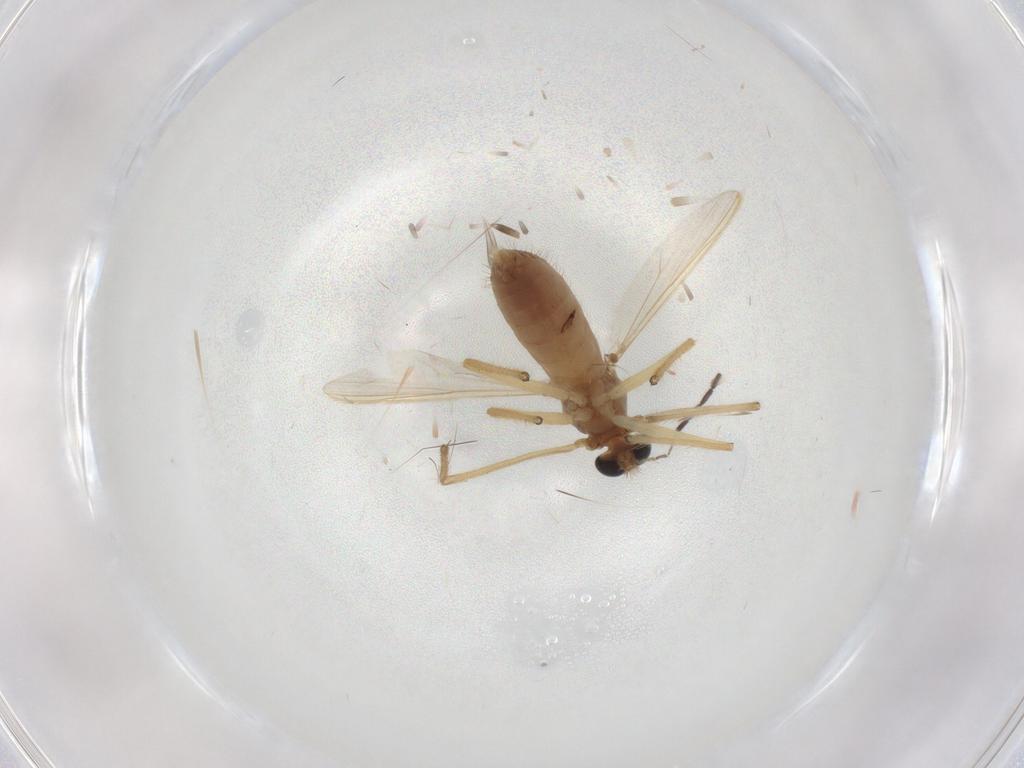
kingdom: Animalia
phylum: Arthropoda
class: Insecta
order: Diptera
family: Chironomidae
